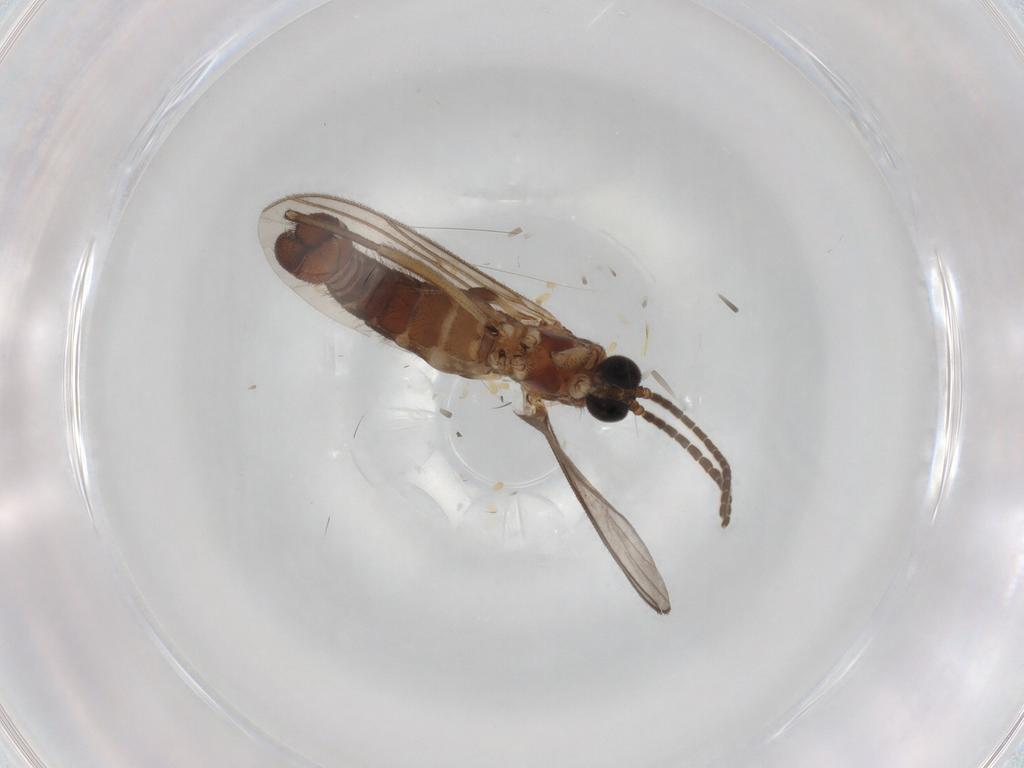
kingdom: Animalia
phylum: Arthropoda
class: Insecta
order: Diptera
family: Sciaridae
